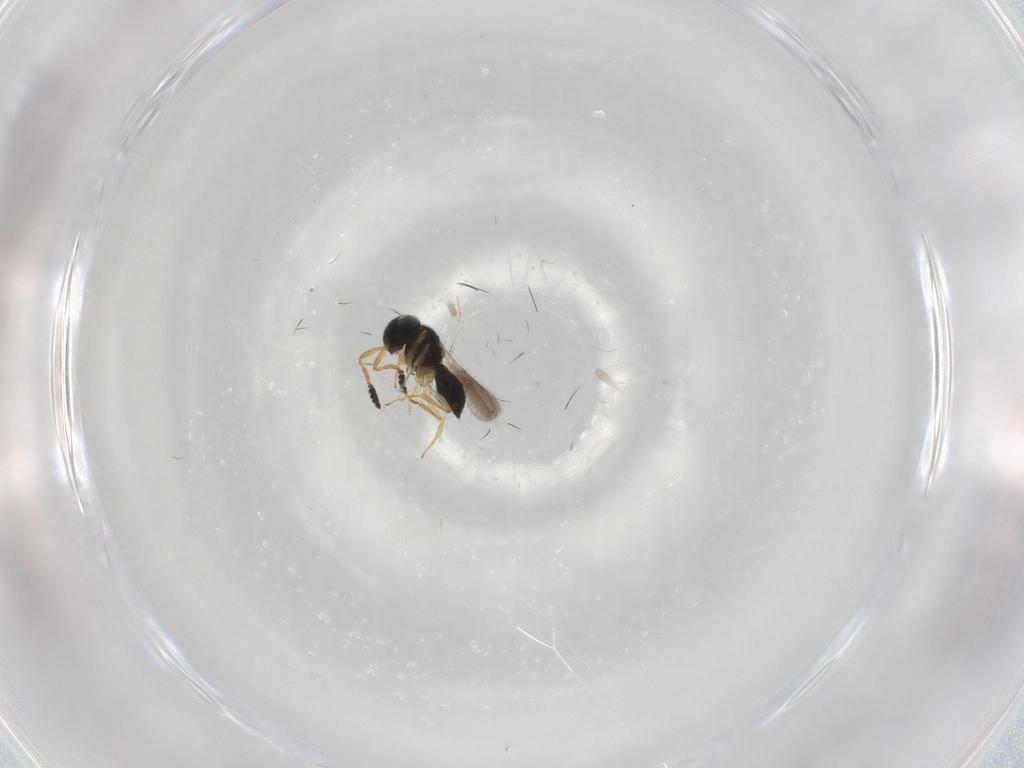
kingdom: Animalia
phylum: Arthropoda
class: Insecta
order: Hymenoptera
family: Scelionidae
